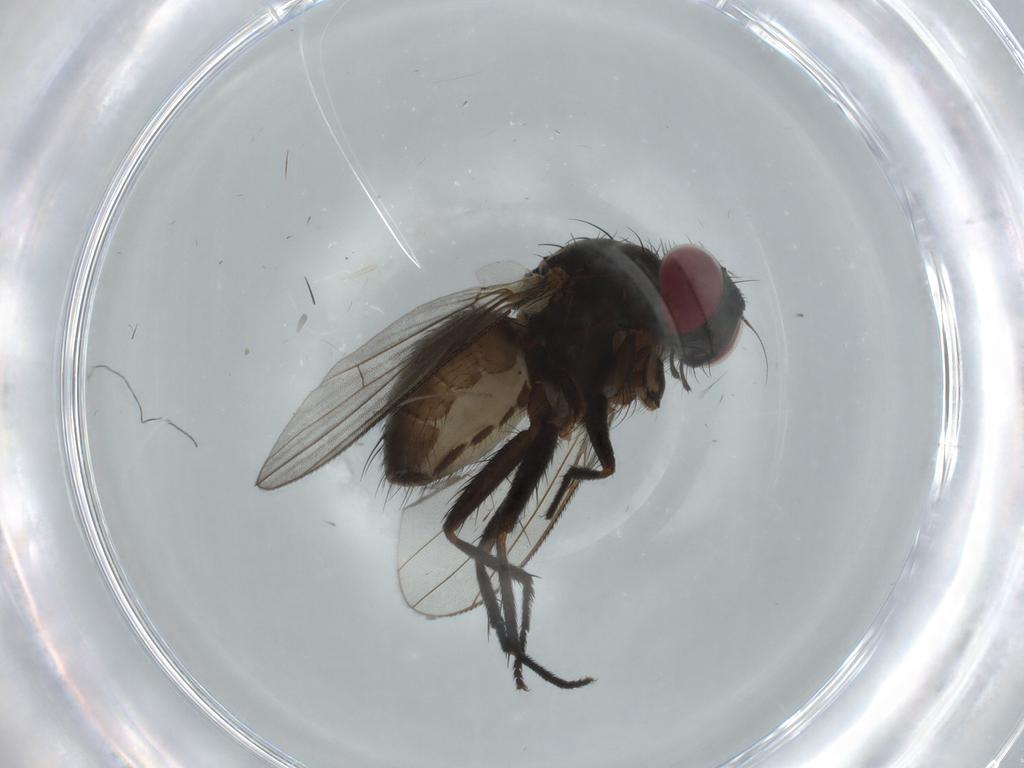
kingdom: Animalia
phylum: Arthropoda
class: Insecta
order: Diptera
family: Muscidae
